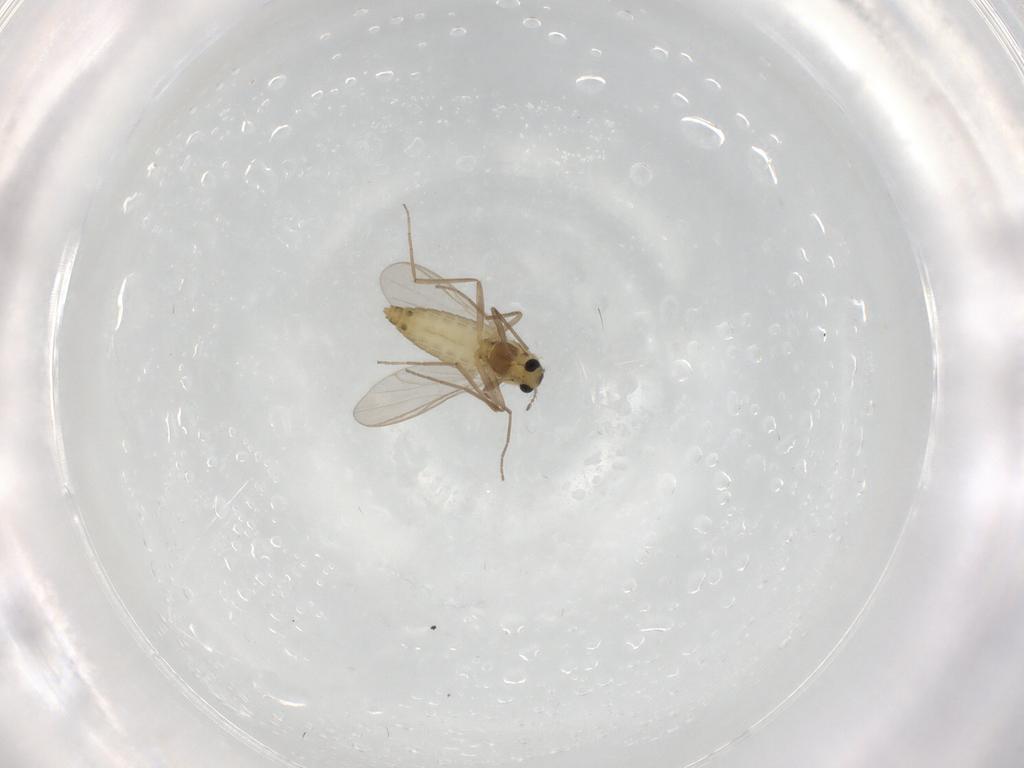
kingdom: Animalia
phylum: Arthropoda
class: Insecta
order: Diptera
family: Chironomidae
